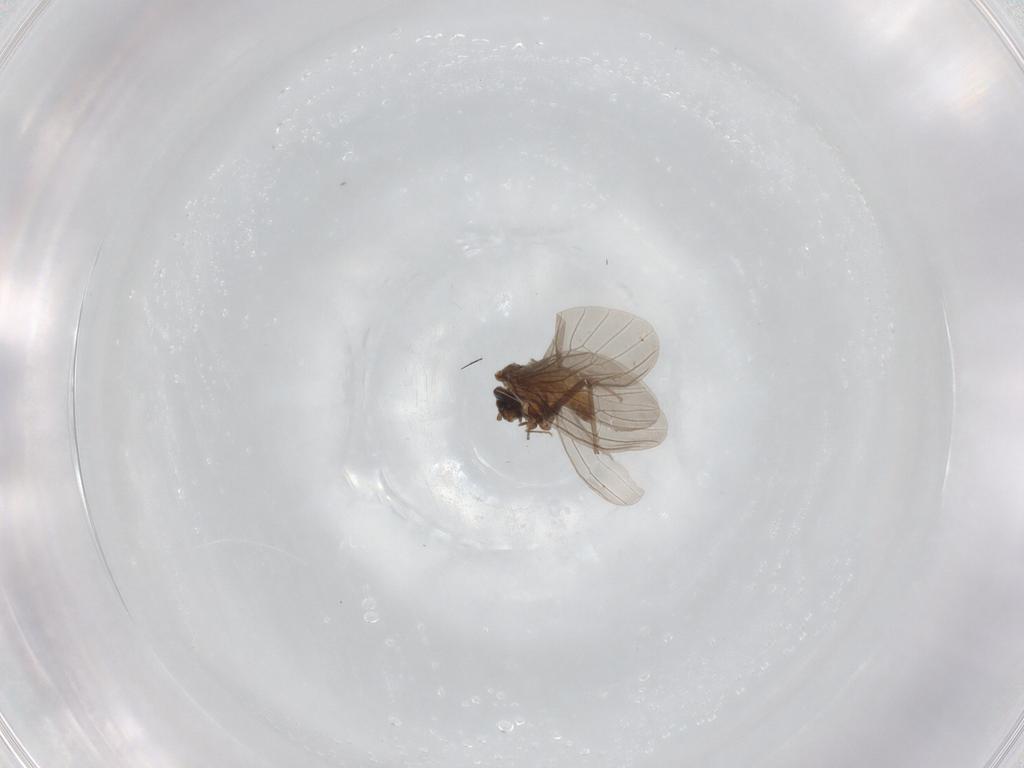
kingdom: Animalia
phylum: Arthropoda
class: Insecta
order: Neuroptera
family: Coniopterygidae
